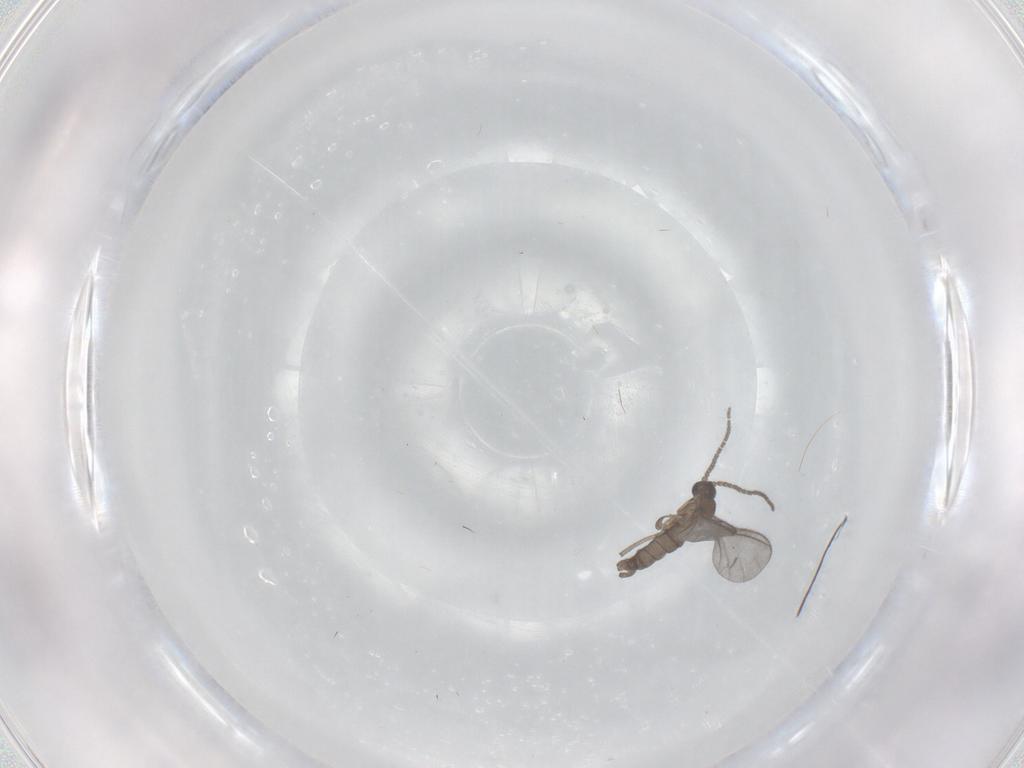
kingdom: Animalia
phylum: Arthropoda
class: Insecta
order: Diptera
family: Sciaridae
